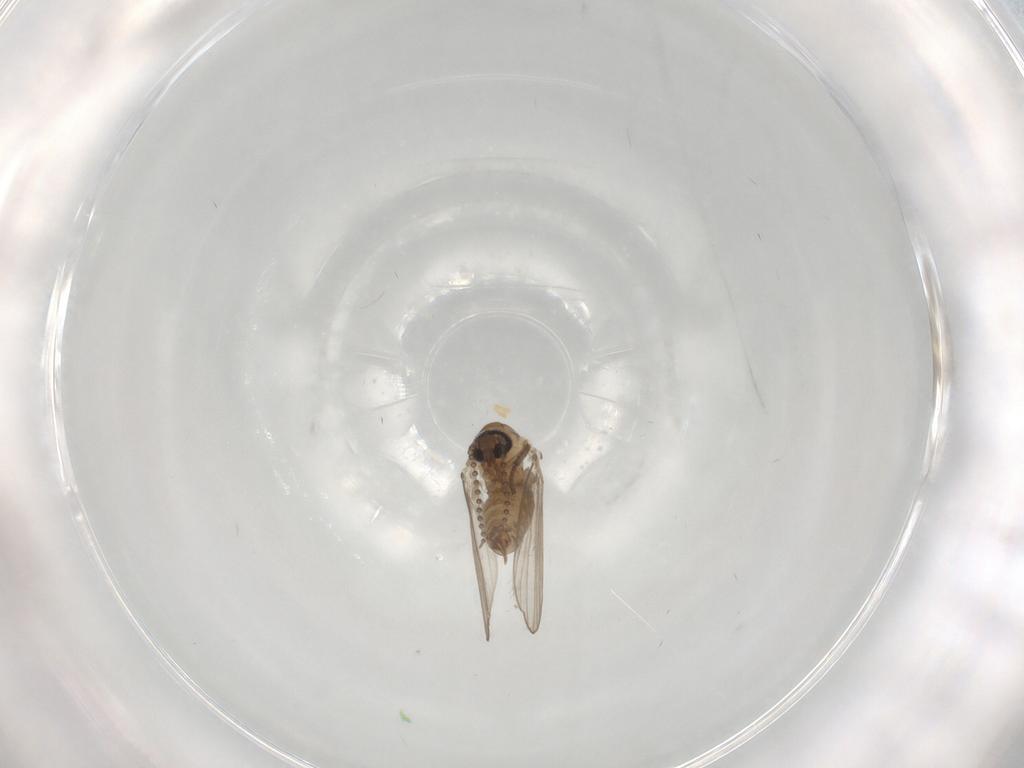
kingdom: Animalia
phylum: Arthropoda
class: Insecta
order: Diptera
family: Psychodidae
